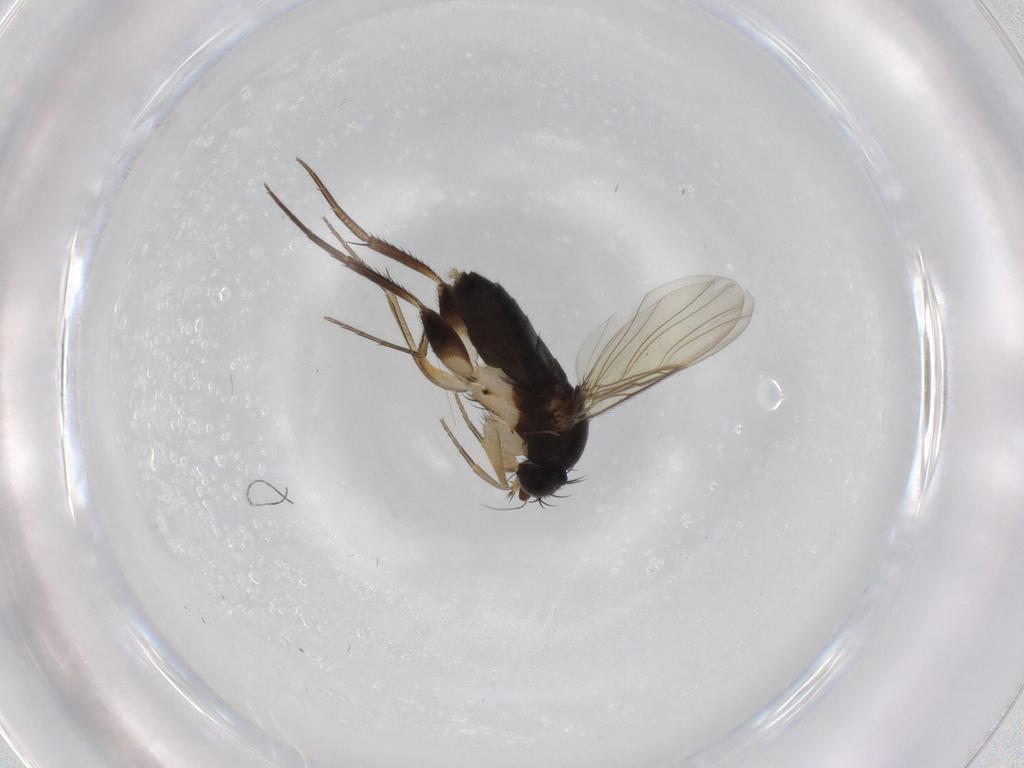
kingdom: Animalia
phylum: Arthropoda
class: Insecta
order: Diptera
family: Phoridae
